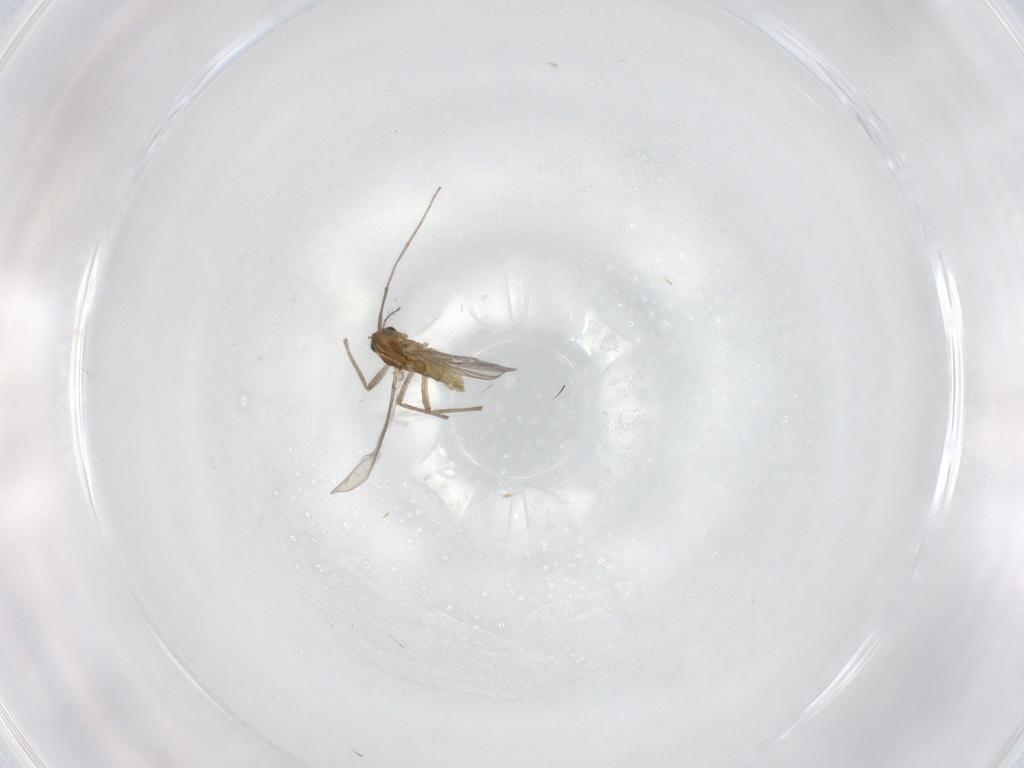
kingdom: Animalia
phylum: Arthropoda
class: Insecta
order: Diptera
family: Chironomidae
